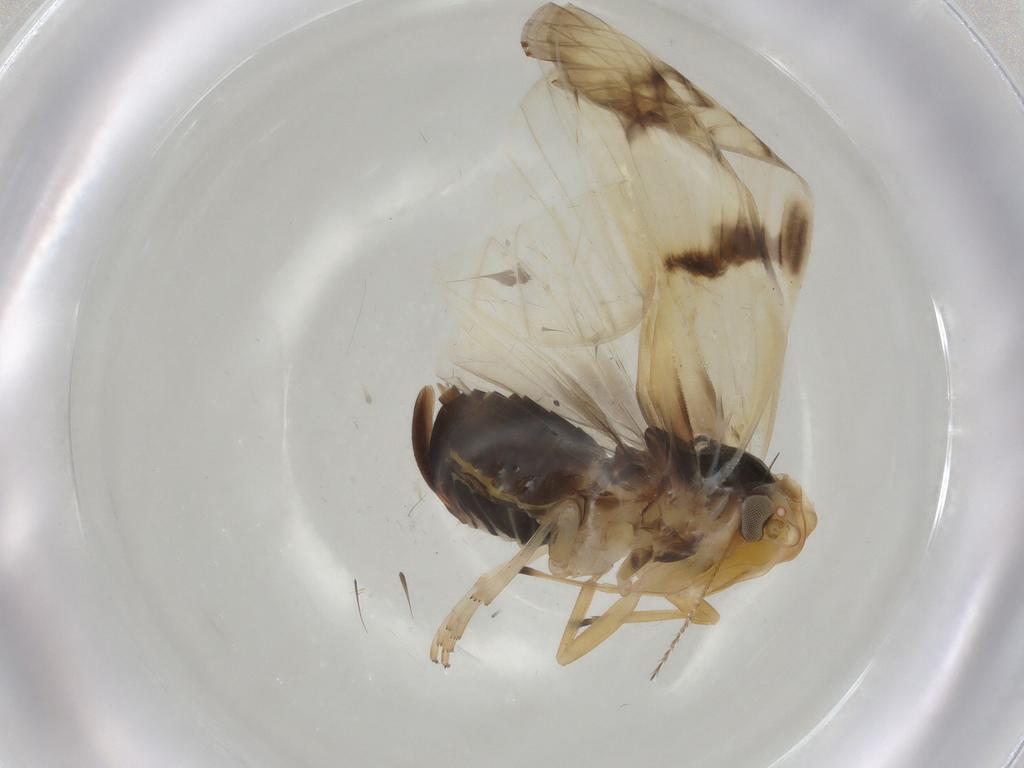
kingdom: Animalia
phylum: Arthropoda
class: Insecta
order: Hemiptera
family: Cixiidae
